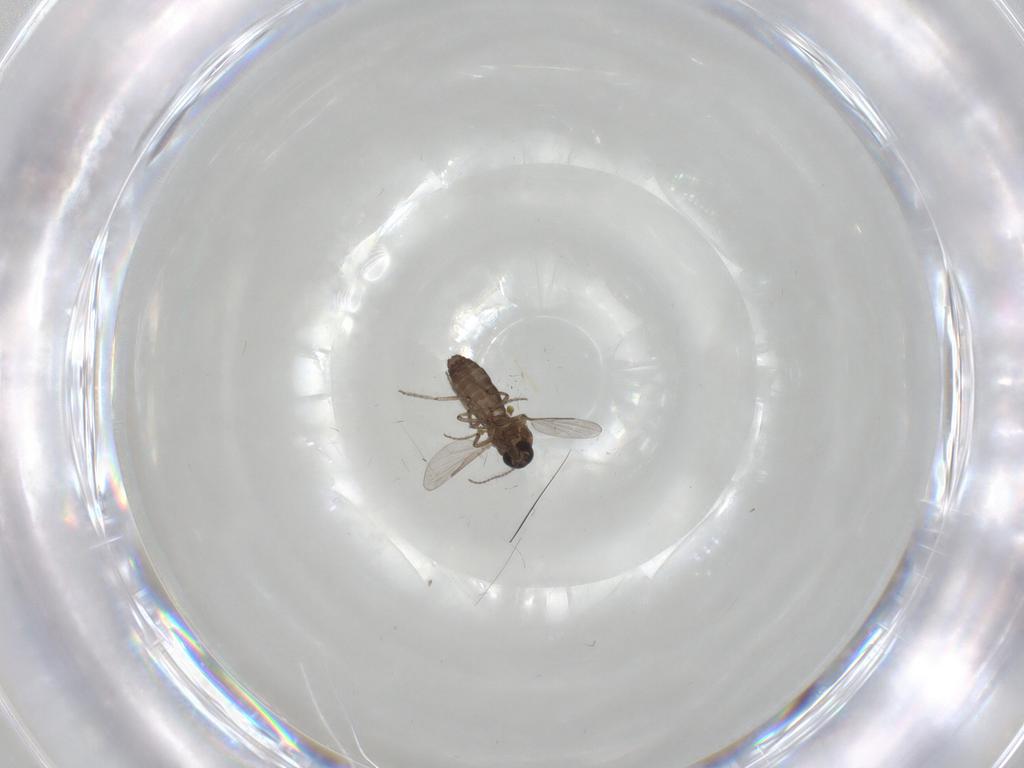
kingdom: Animalia
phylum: Arthropoda
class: Insecta
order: Diptera
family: Ceratopogonidae
